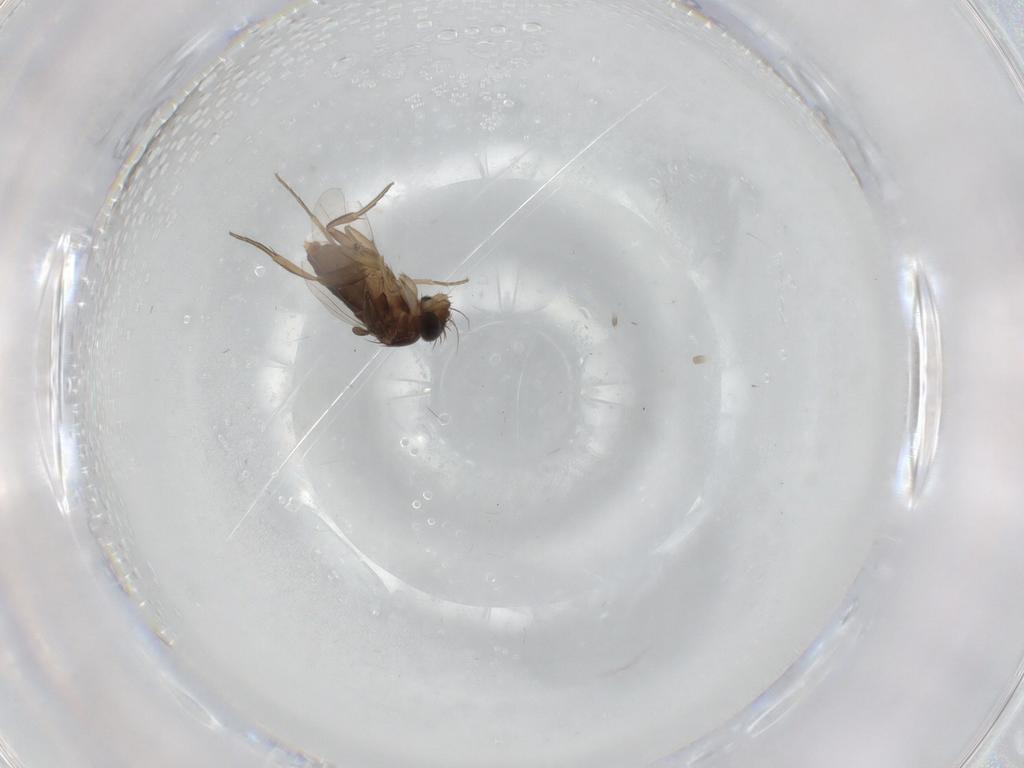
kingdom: Animalia
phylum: Arthropoda
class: Insecta
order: Diptera
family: Phoridae
